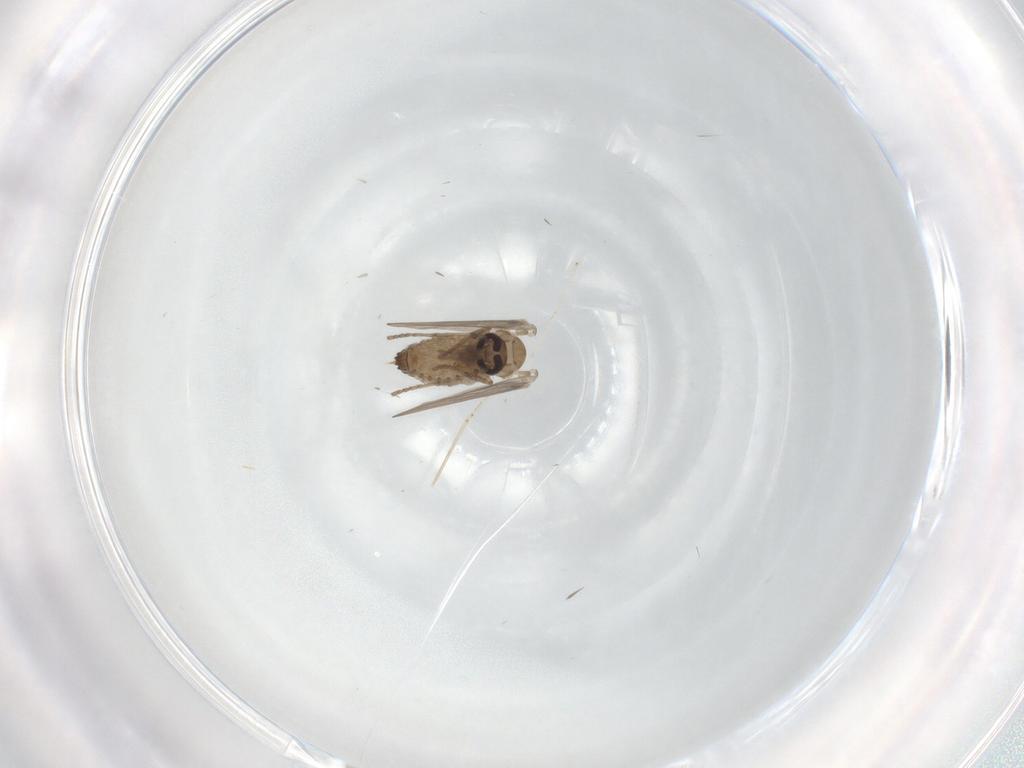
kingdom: Animalia
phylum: Arthropoda
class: Insecta
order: Diptera
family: Cecidomyiidae
